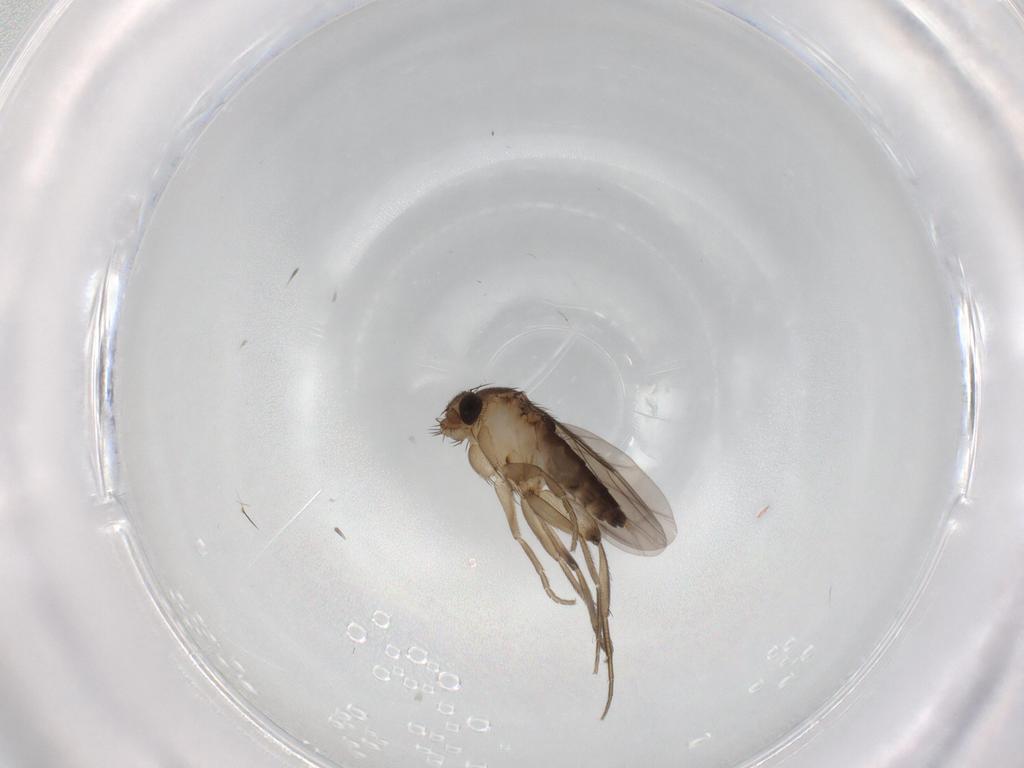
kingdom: Animalia
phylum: Arthropoda
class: Insecta
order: Diptera
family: Phoridae
